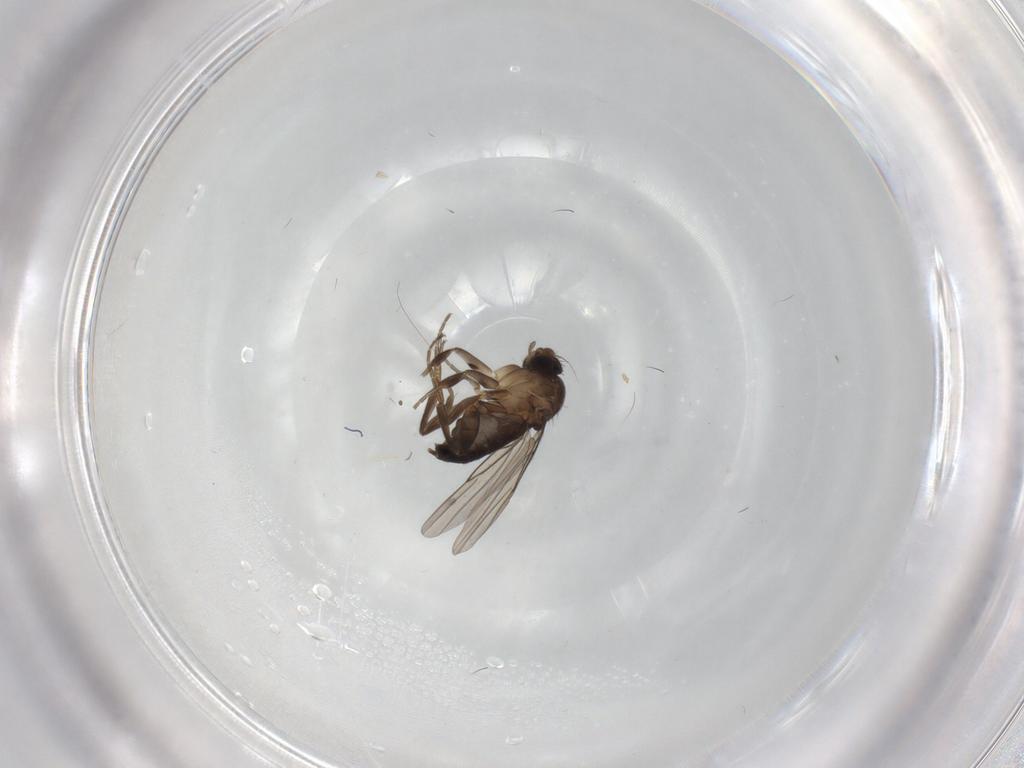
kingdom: Animalia
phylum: Arthropoda
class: Insecta
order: Diptera
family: Phoridae
